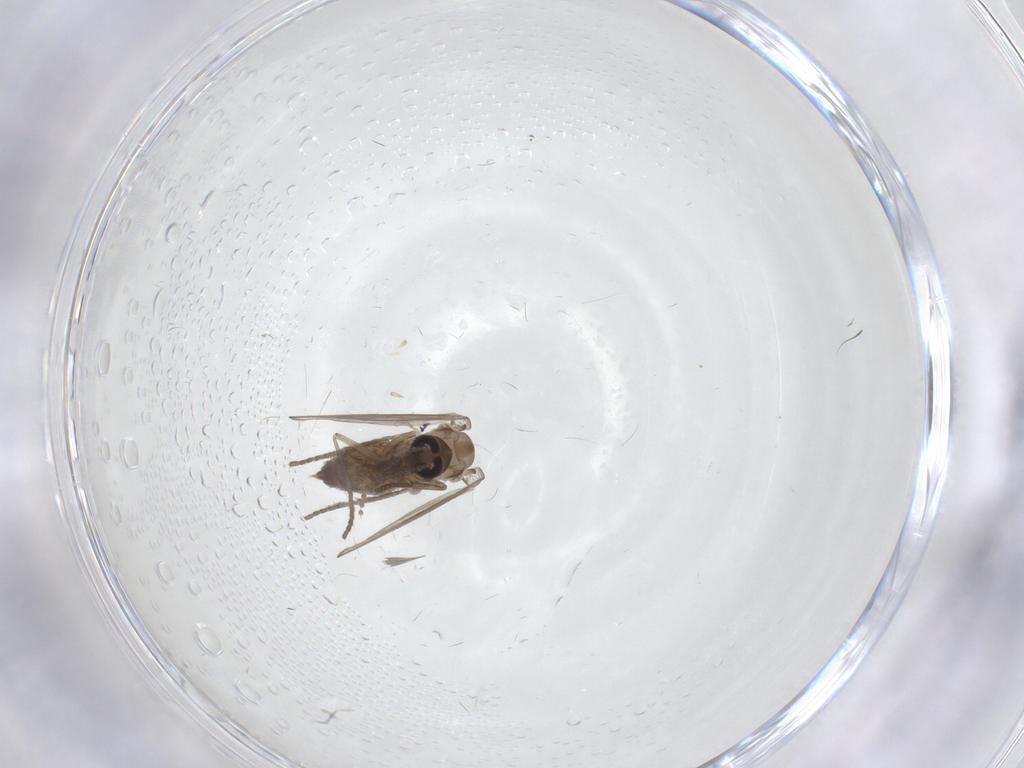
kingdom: Animalia
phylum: Arthropoda
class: Insecta
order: Diptera
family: Psychodidae
